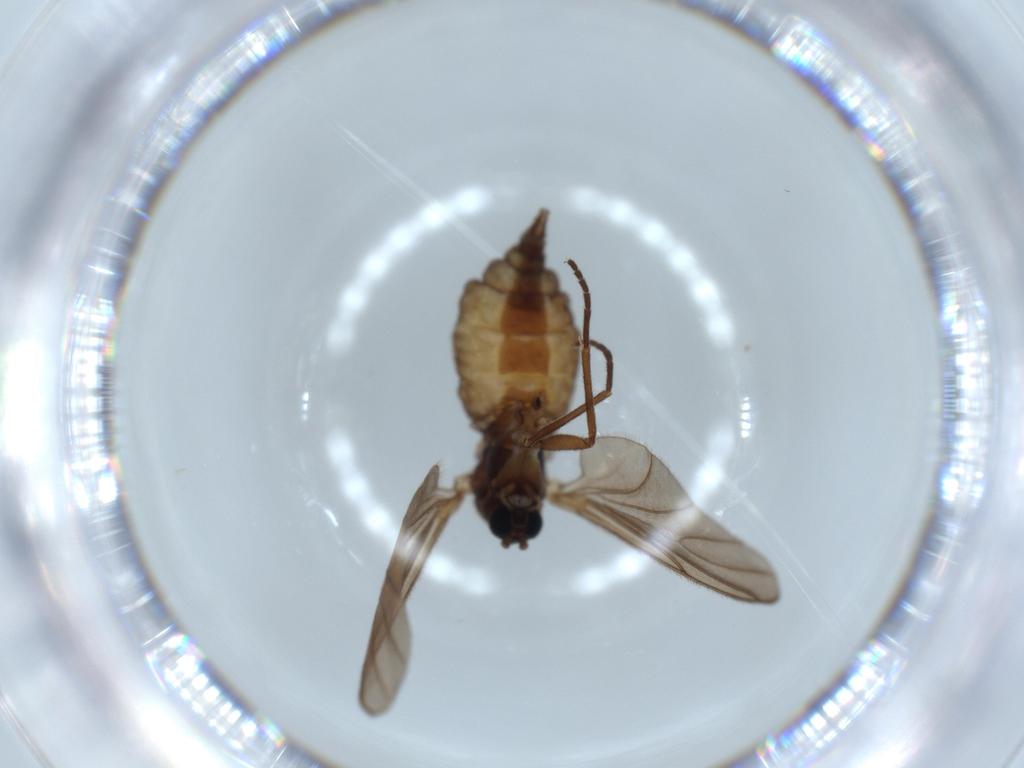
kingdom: Animalia
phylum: Arthropoda
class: Insecta
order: Diptera
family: Sciaridae
